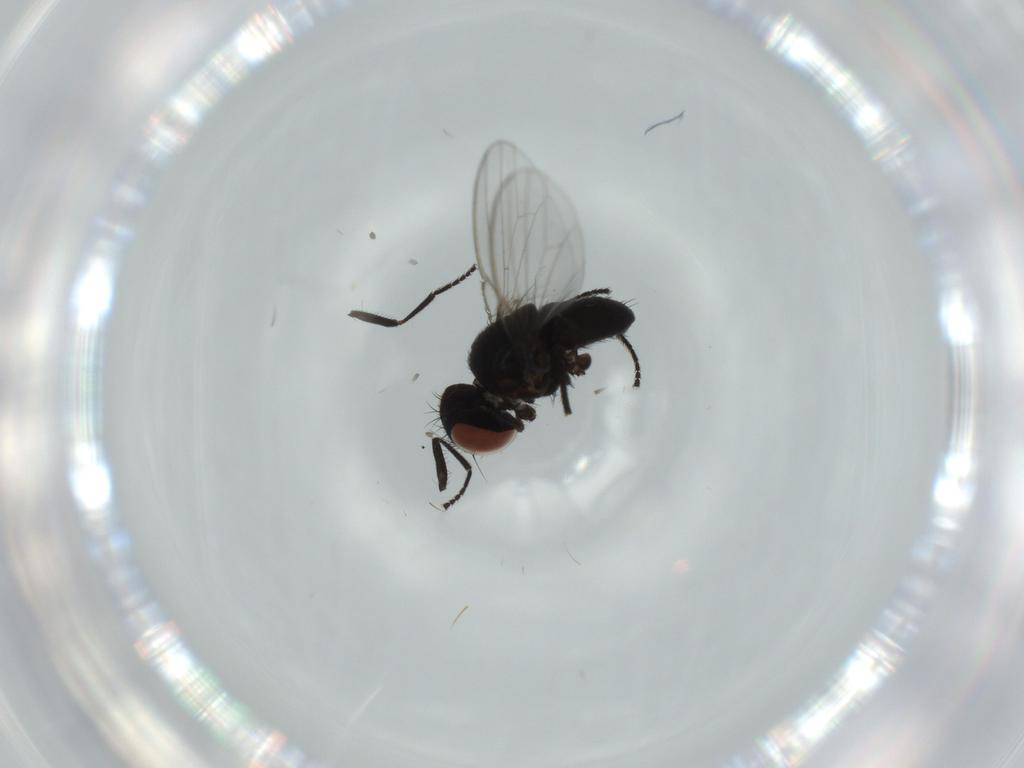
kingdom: Animalia
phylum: Arthropoda
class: Insecta
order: Diptera
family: Milichiidae
